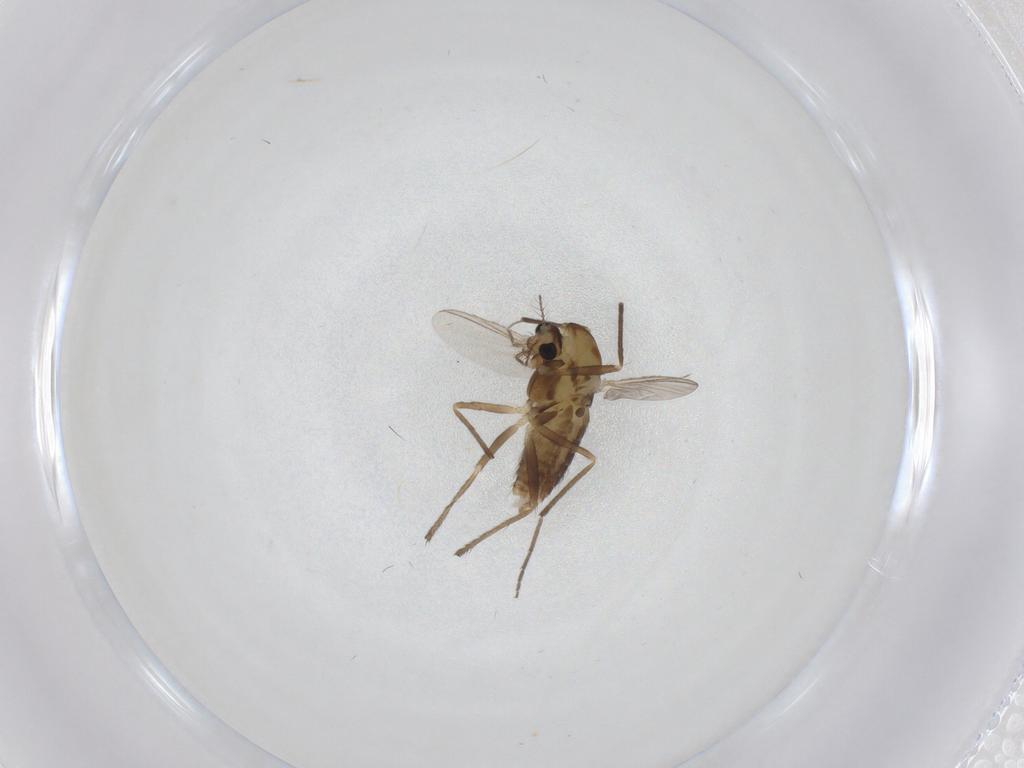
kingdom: Animalia
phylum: Arthropoda
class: Insecta
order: Diptera
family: Chironomidae
